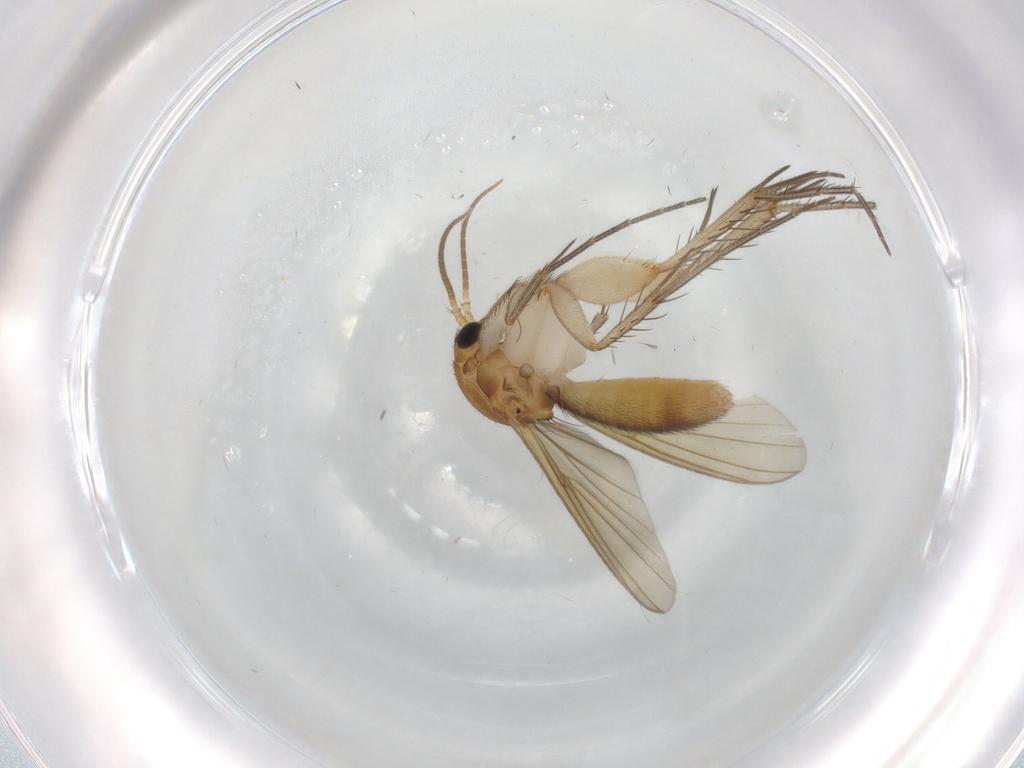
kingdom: Animalia
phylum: Arthropoda
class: Insecta
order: Diptera
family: Mycetophilidae
